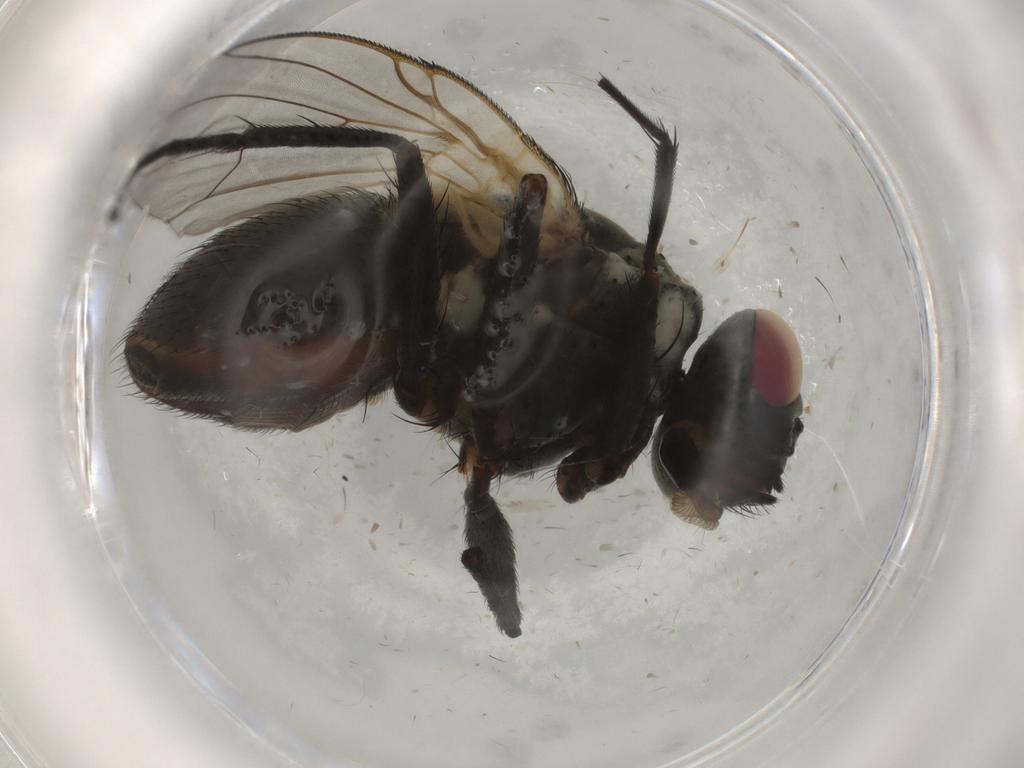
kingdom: Animalia
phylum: Arthropoda
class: Insecta
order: Diptera
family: Muscidae
